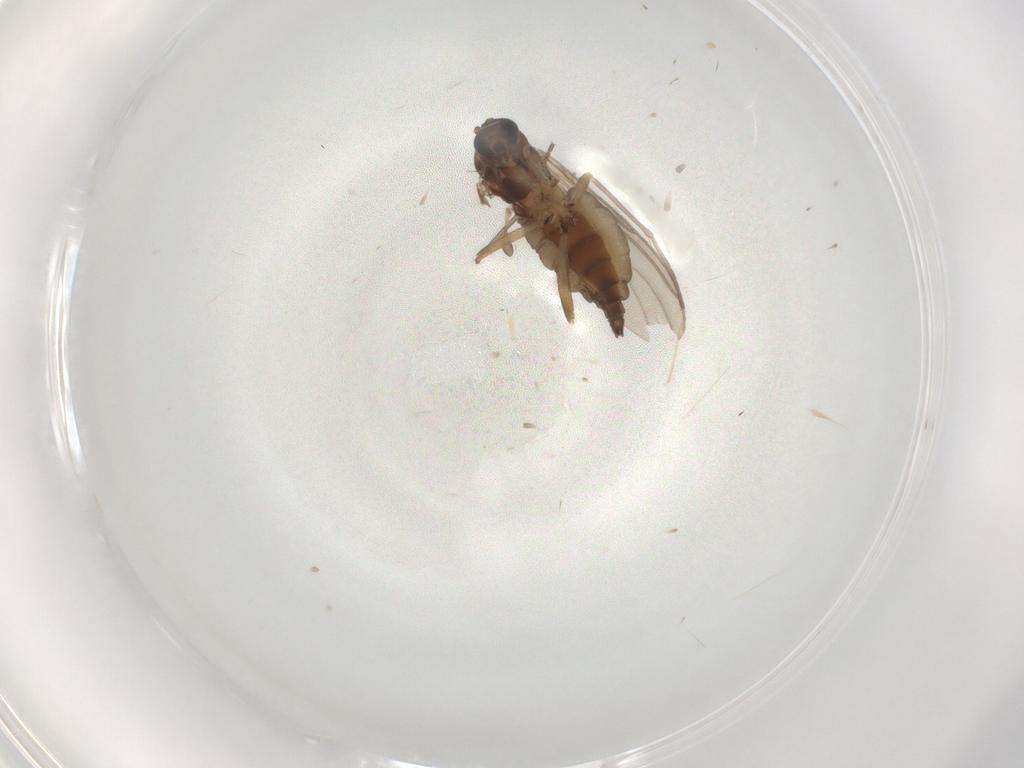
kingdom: Animalia
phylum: Arthropoda
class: Insecta
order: Diptera
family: Sciaridae
